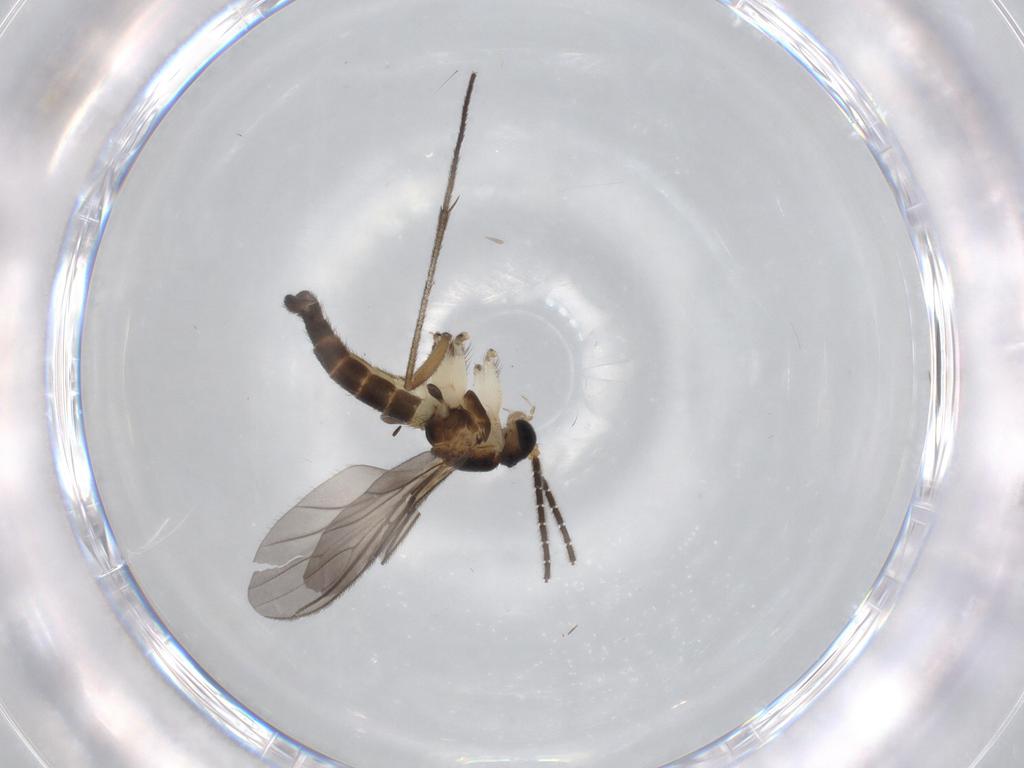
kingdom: Animalia
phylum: Arthropoda
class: Insecta
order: Diptera
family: Sciaridae
